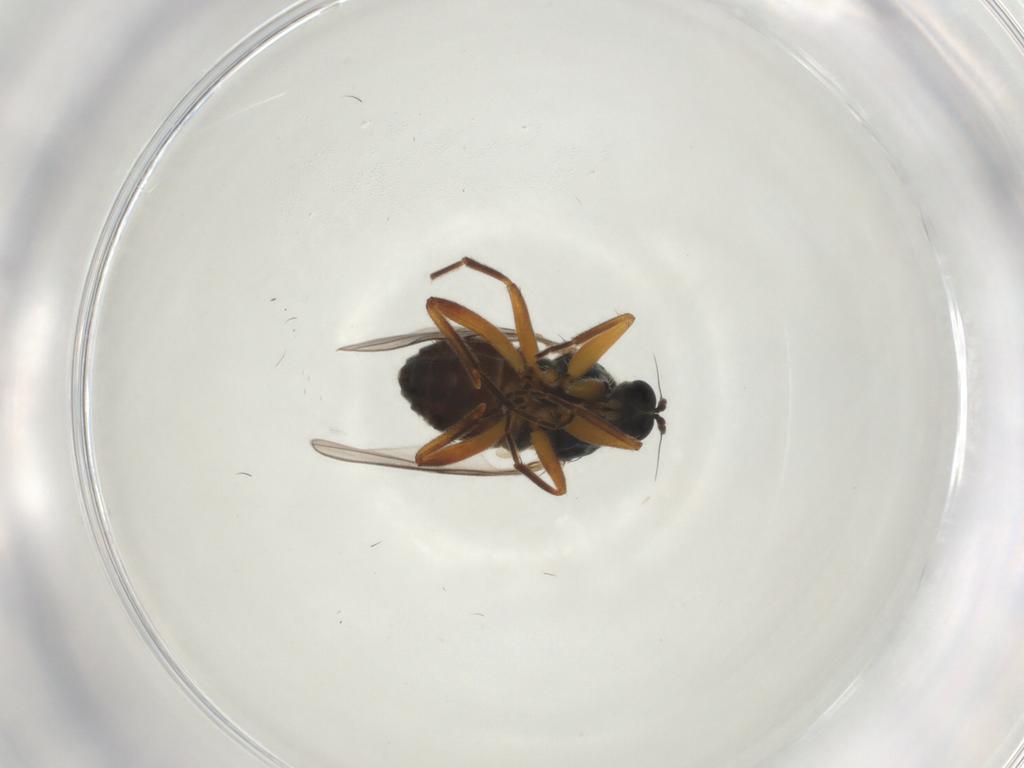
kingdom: Animalia
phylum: Arthropoda
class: Insecta
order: Diptera
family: Hybotidae
